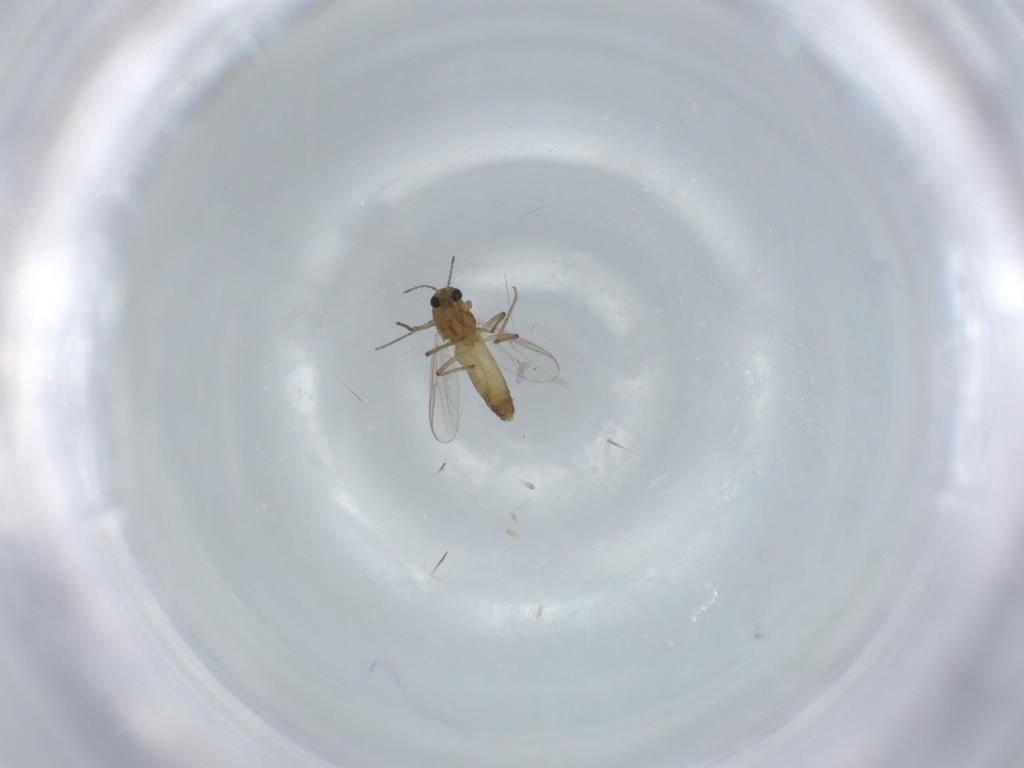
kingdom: Animalia
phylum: Arthropoda
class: Insecta
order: Diptera
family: Chironomidae
